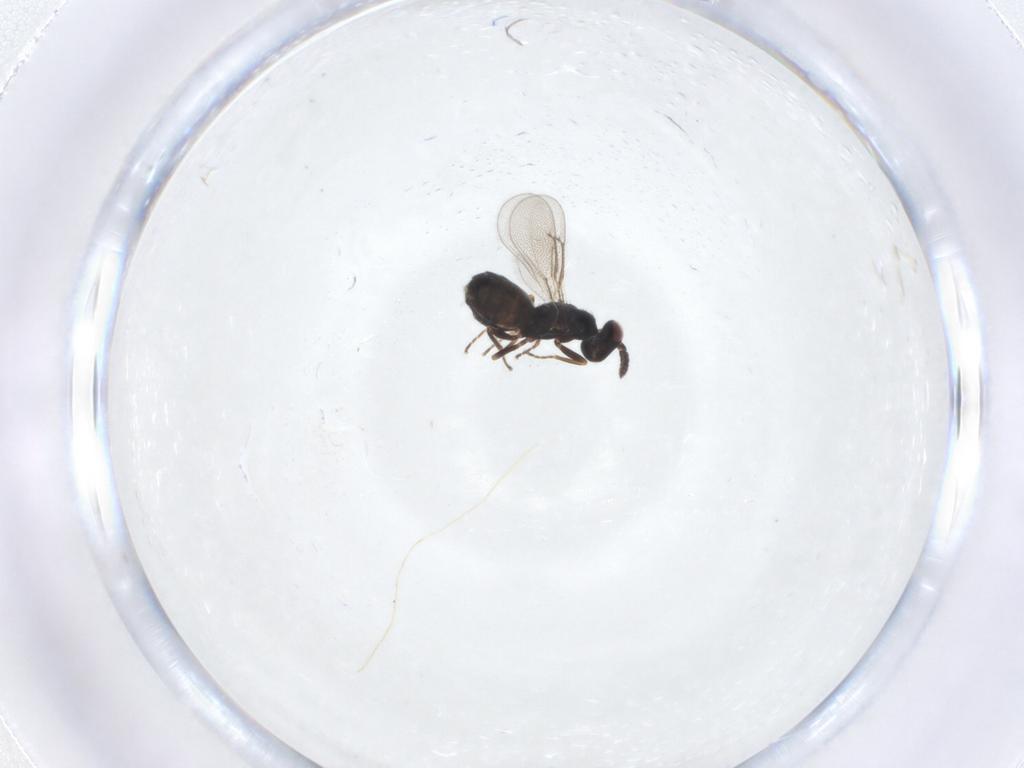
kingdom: Animalia
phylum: Arthropoda
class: Insecta
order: Hymenoptera
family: Eulophidae
